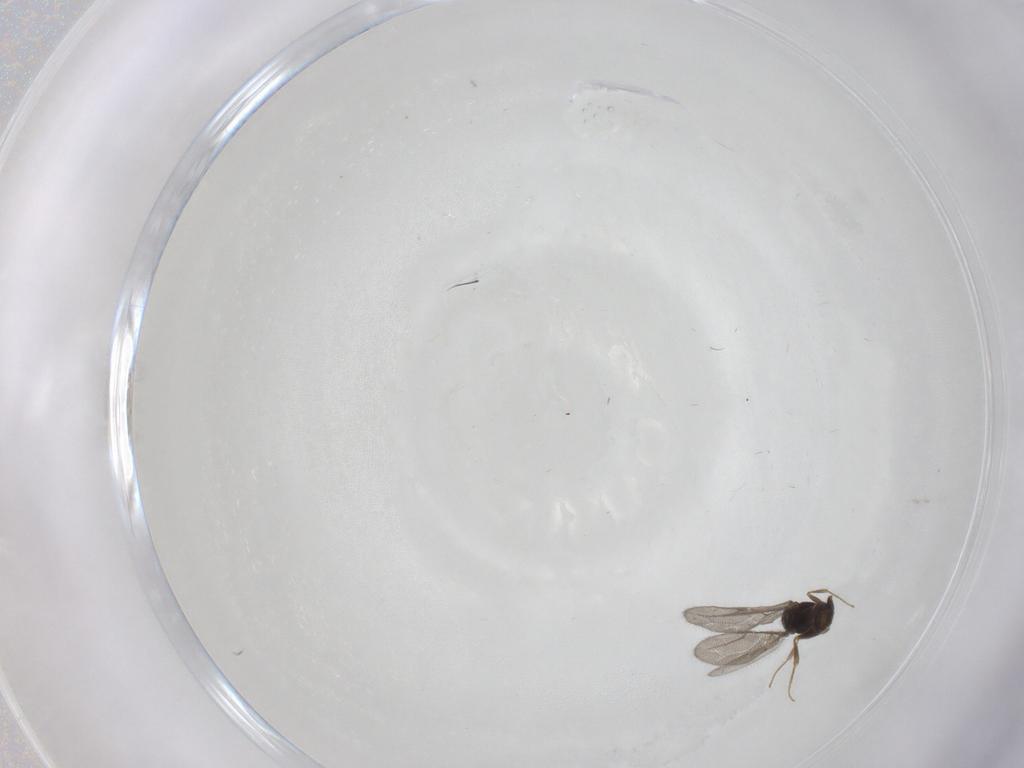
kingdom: Animalia
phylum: Arthropoda
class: Insecta
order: Hymenoptera
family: Bethylidae
